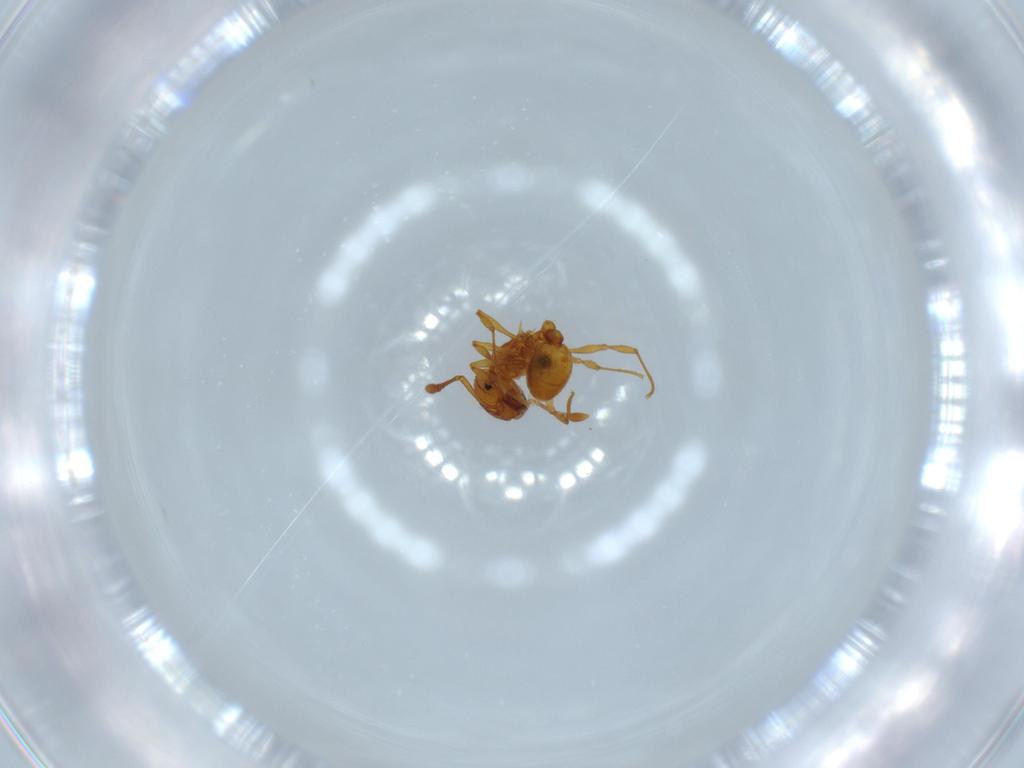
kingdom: Animalia
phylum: Arthropoda
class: Insecta
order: Hymenoptera
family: Formicidae
